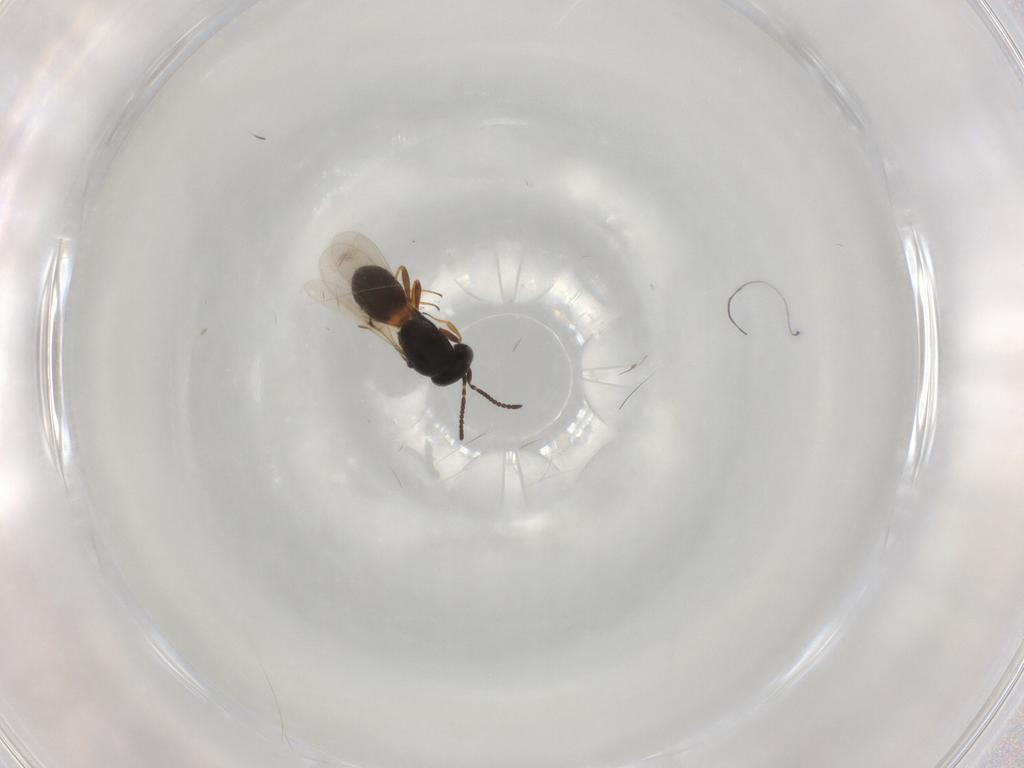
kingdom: Animalia
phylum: Arthropoda
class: Insecta
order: Hymenoptera
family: Scelionidae
